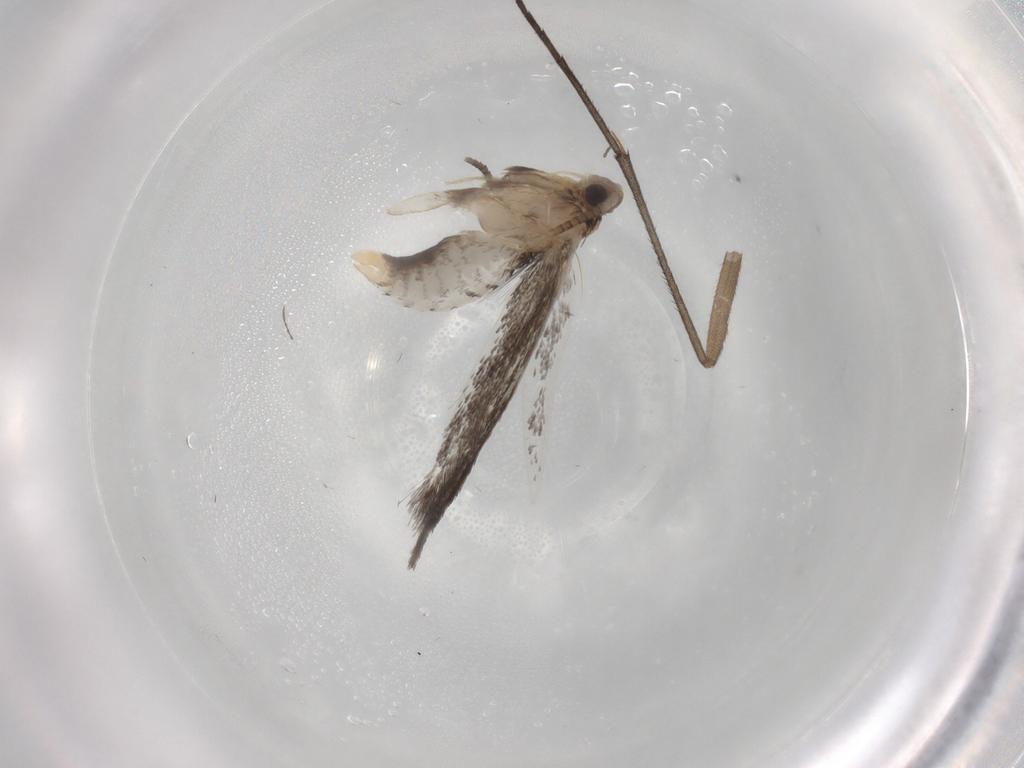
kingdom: Animalia
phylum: Arthropoda
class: Insecta
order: Lepidoptera
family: Tineidae
